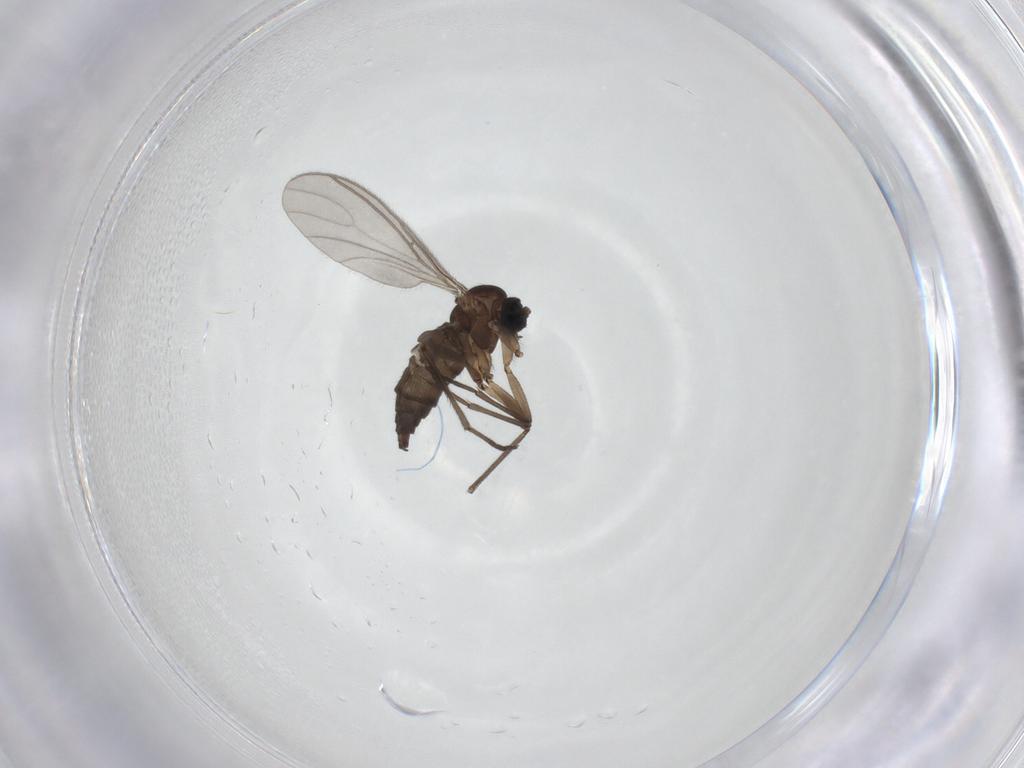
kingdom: Animalia
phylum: Arthropoda
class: Insecta
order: Diptera
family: Sciaridae
